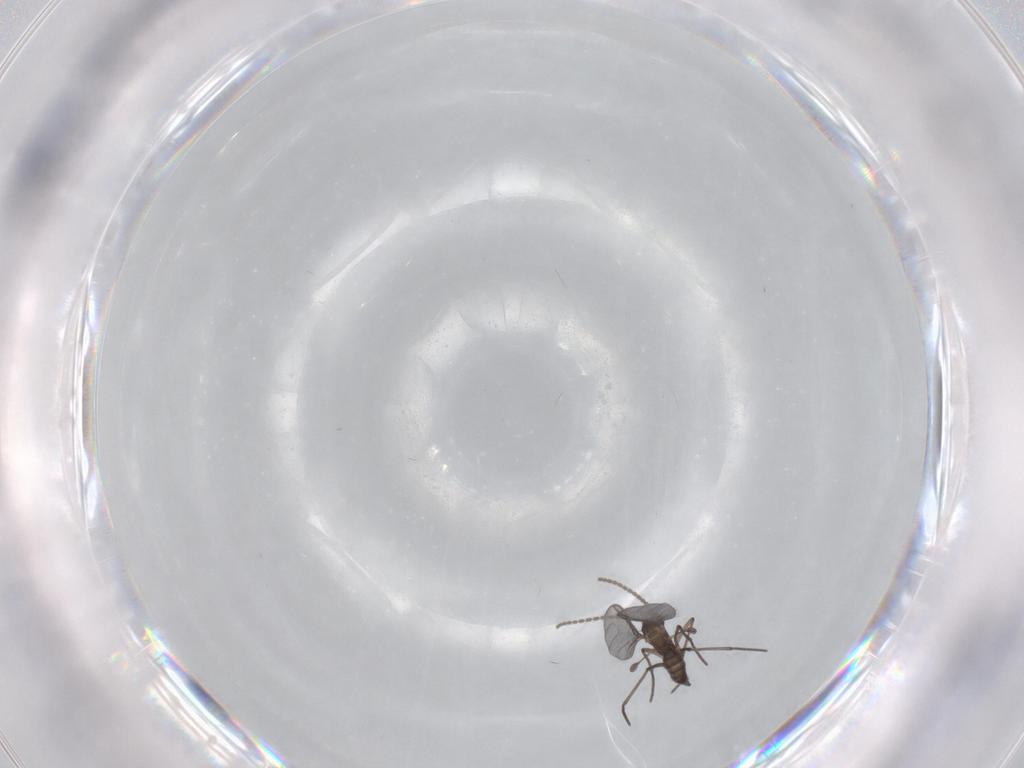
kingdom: Animalia
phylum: Arthropoda
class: Insecta
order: Diptera
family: Sciaridae
